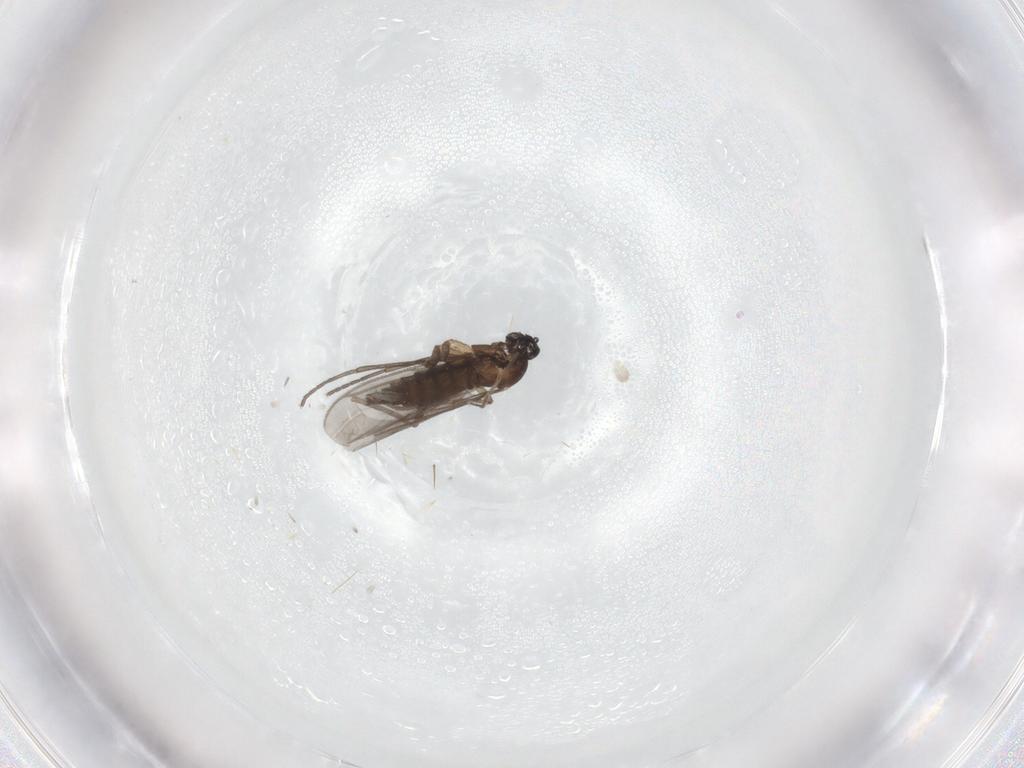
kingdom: Animalia
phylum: Arthropoda
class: Insecta
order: Diptera
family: Sciaridae
